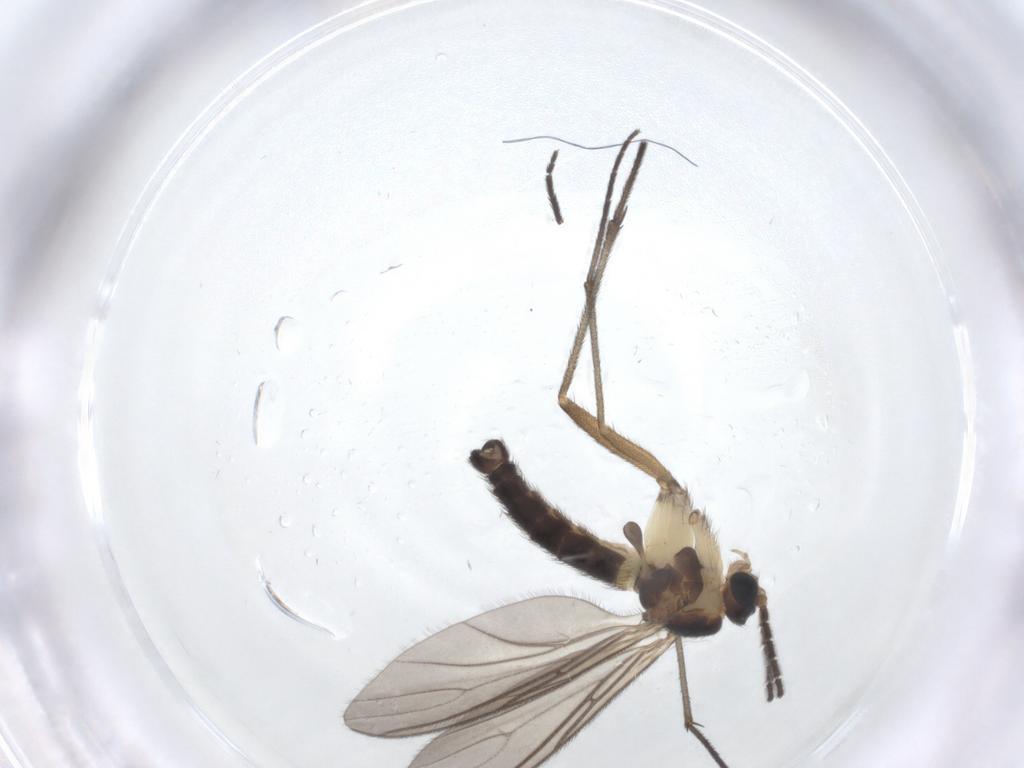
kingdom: Animalia
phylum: Arthropoda
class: Insecta
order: Diptera
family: Sciaridae
